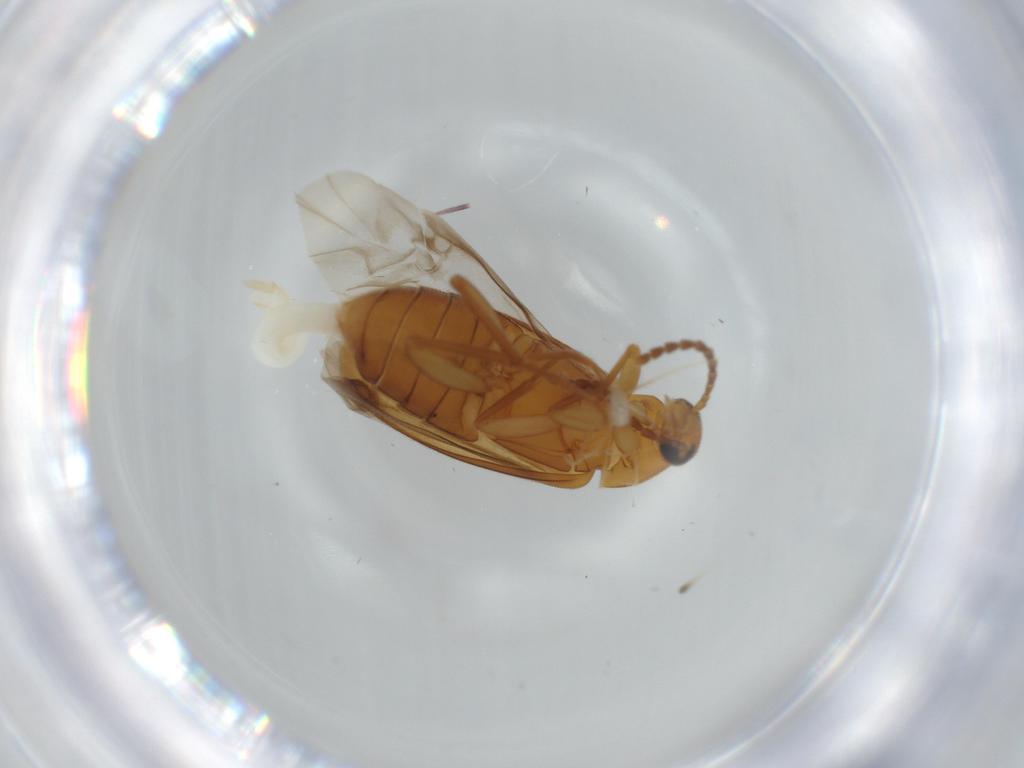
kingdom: Animalia
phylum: Arthropoda
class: Insecta
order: Coleoptera
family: Scraptiidae
